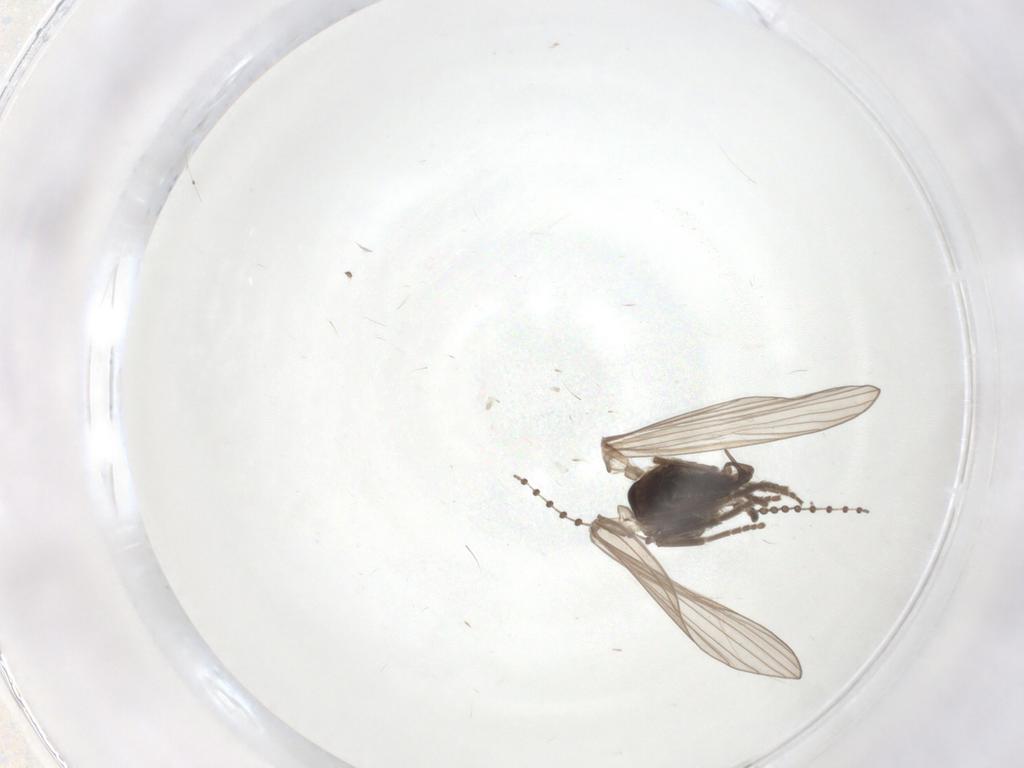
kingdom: Animalia
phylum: Arthropoda
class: Insecta
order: Diptera
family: Psychodidae
